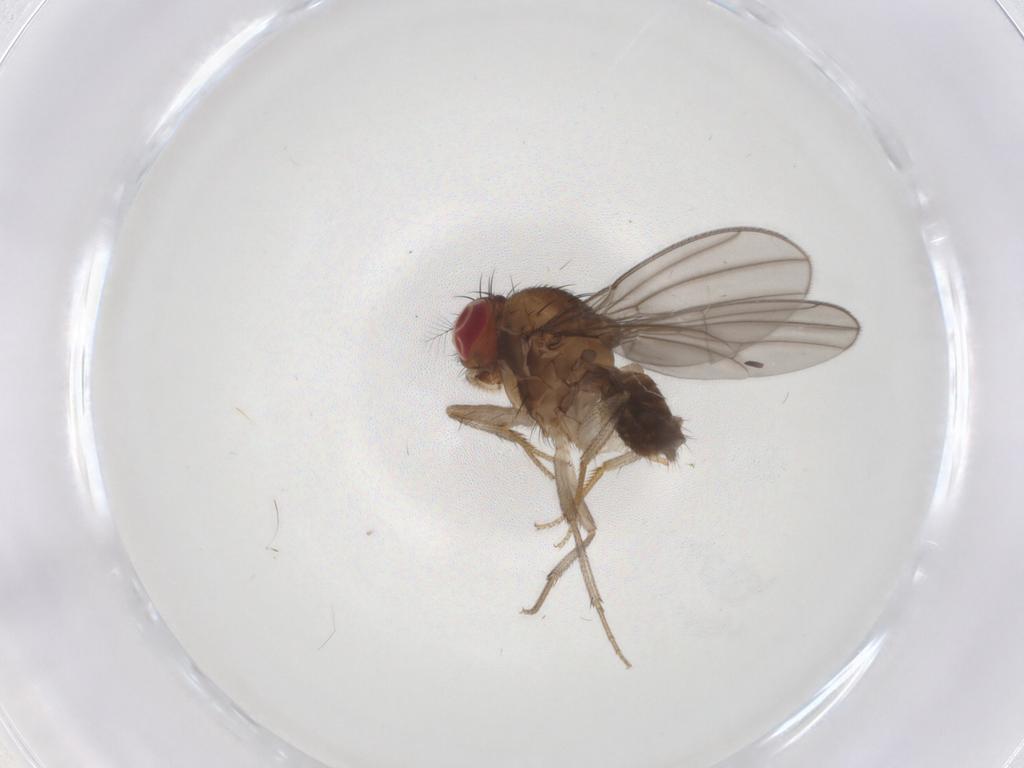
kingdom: Animalia
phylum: Arthropoda
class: Insecta
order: Diptera
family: Drosophilidae
